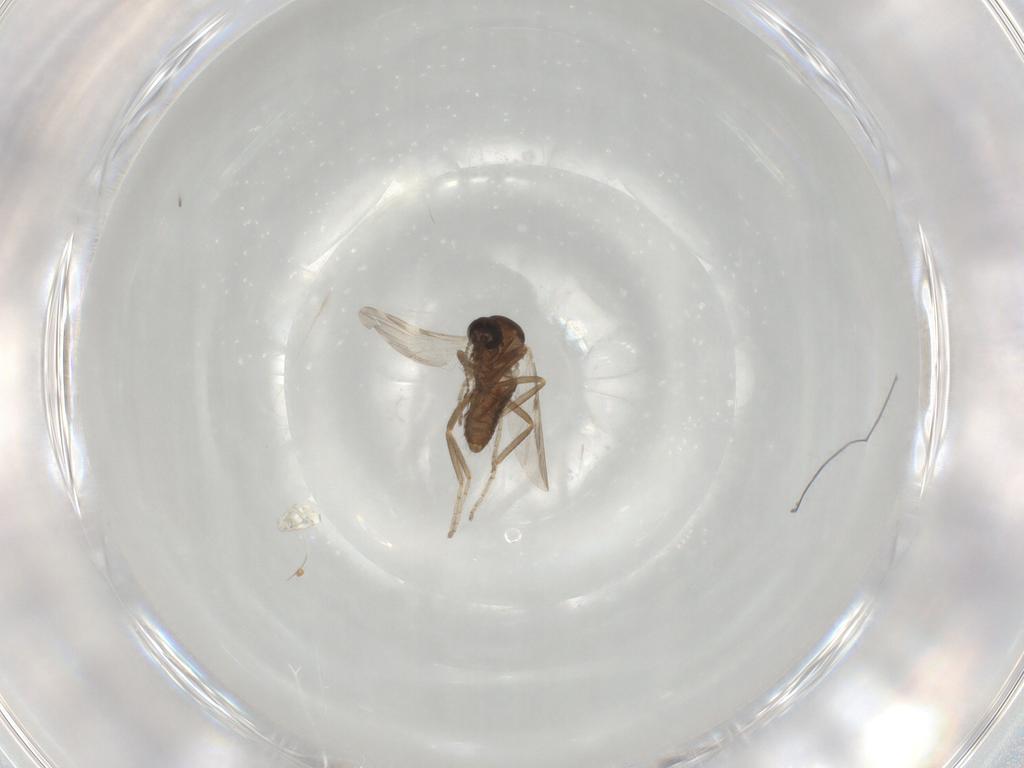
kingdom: Animalia
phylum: Arthropoda
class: Insecta
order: Diptera
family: Ceratopogonidae
